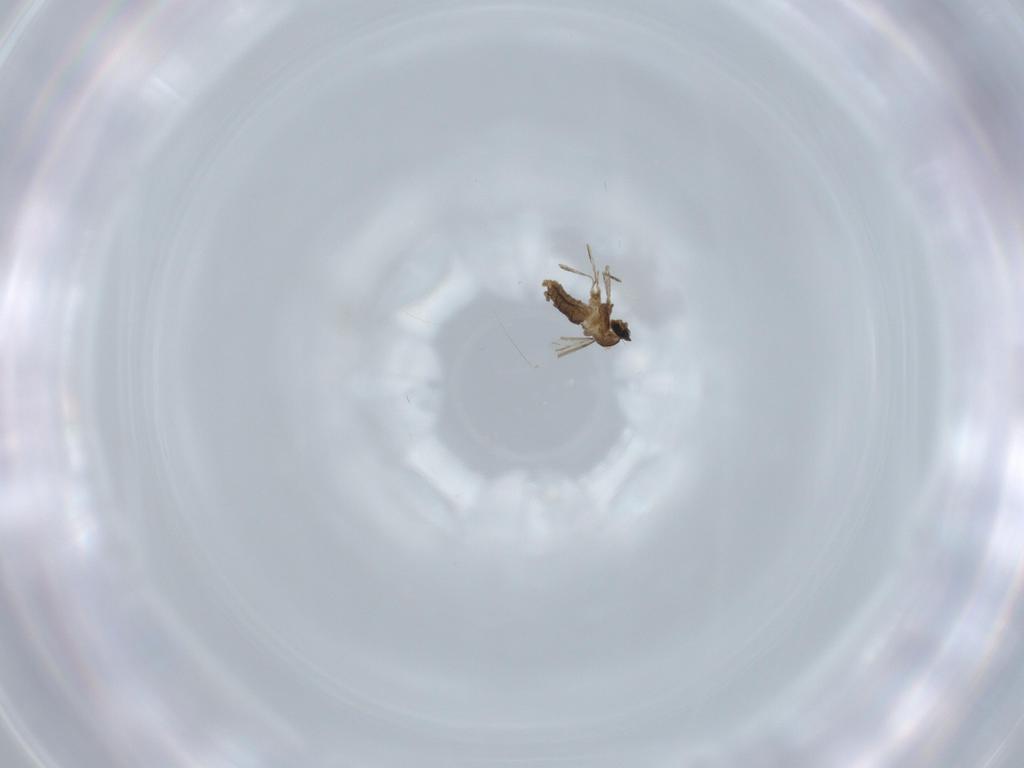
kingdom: Animalia
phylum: Arthropoda
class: Insecta
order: Diptera
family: Cecidomyiidae
